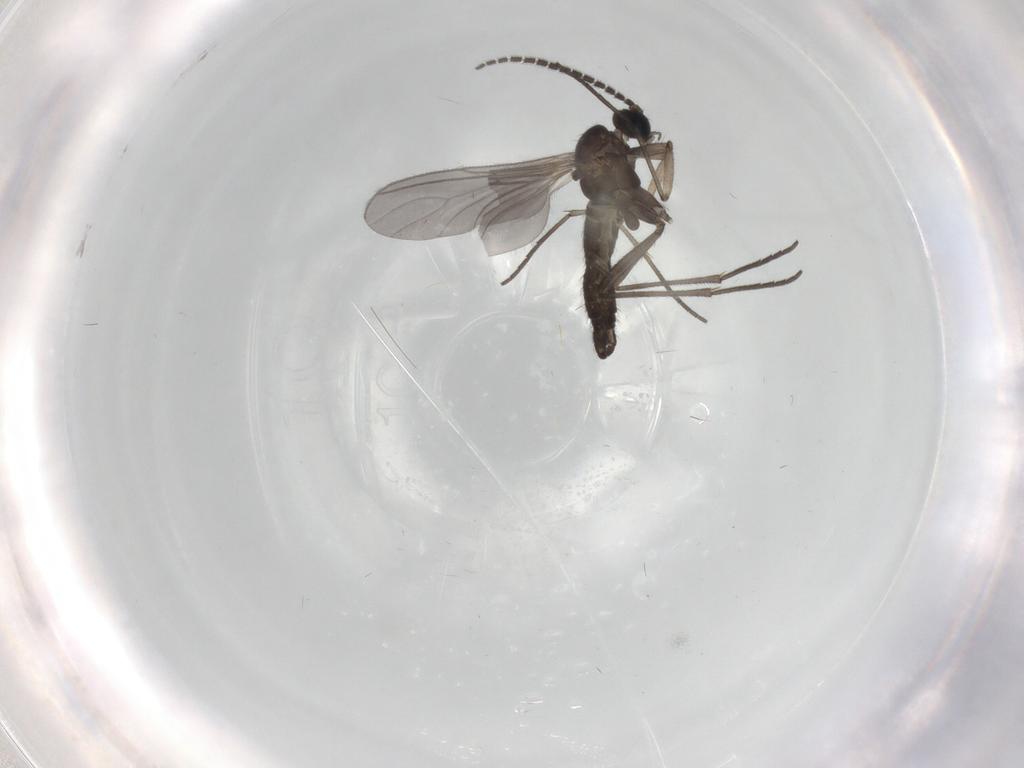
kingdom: Animalia
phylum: Arthropoda
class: Insecta
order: Diptera
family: Sciaridae
